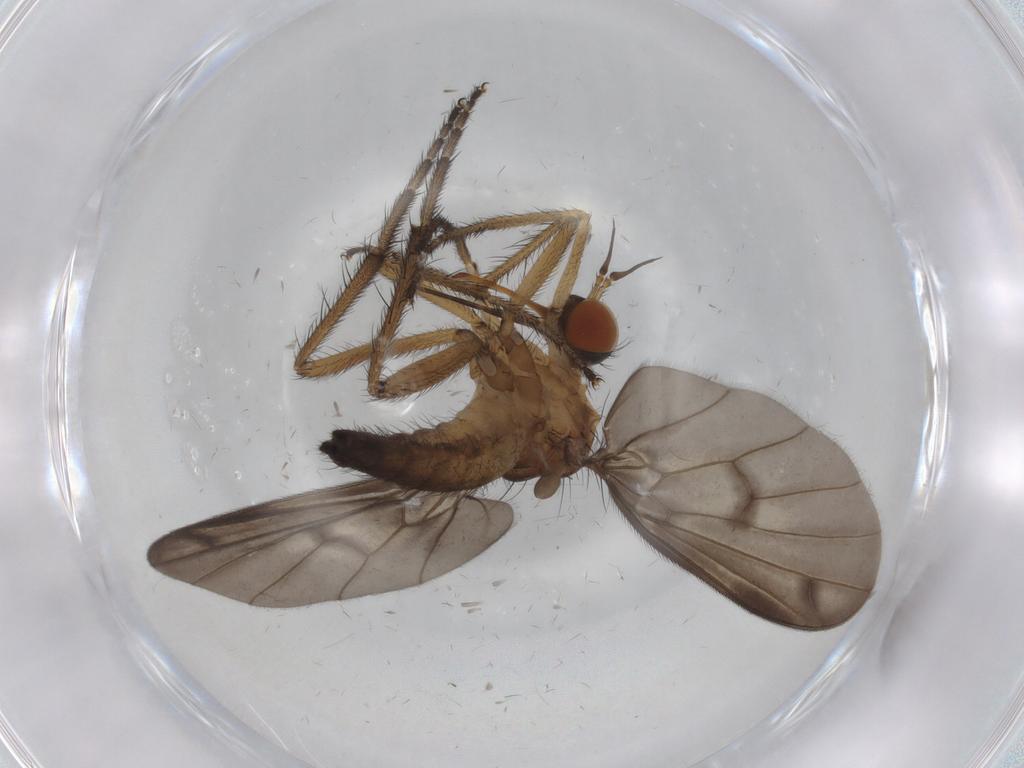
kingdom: Animalia
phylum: Arthropoda
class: Insecta
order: Diptera
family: Empididae
